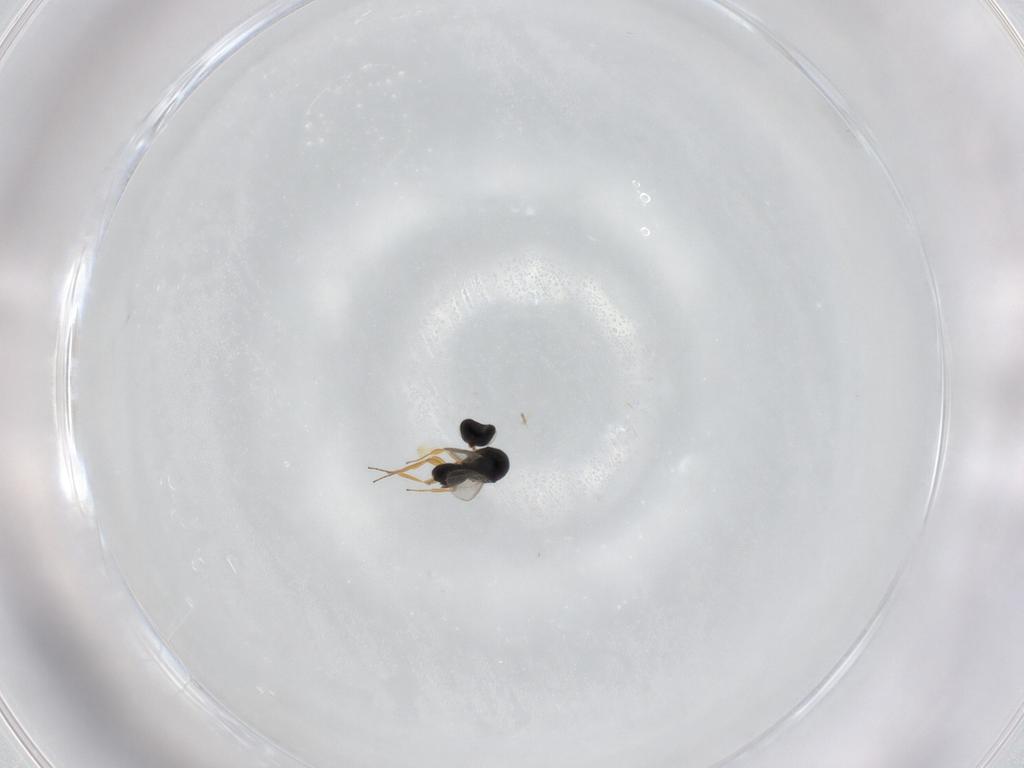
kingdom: Animalia
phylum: Arthropoda
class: Insecta
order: Hymenoptera
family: Scelionidae
